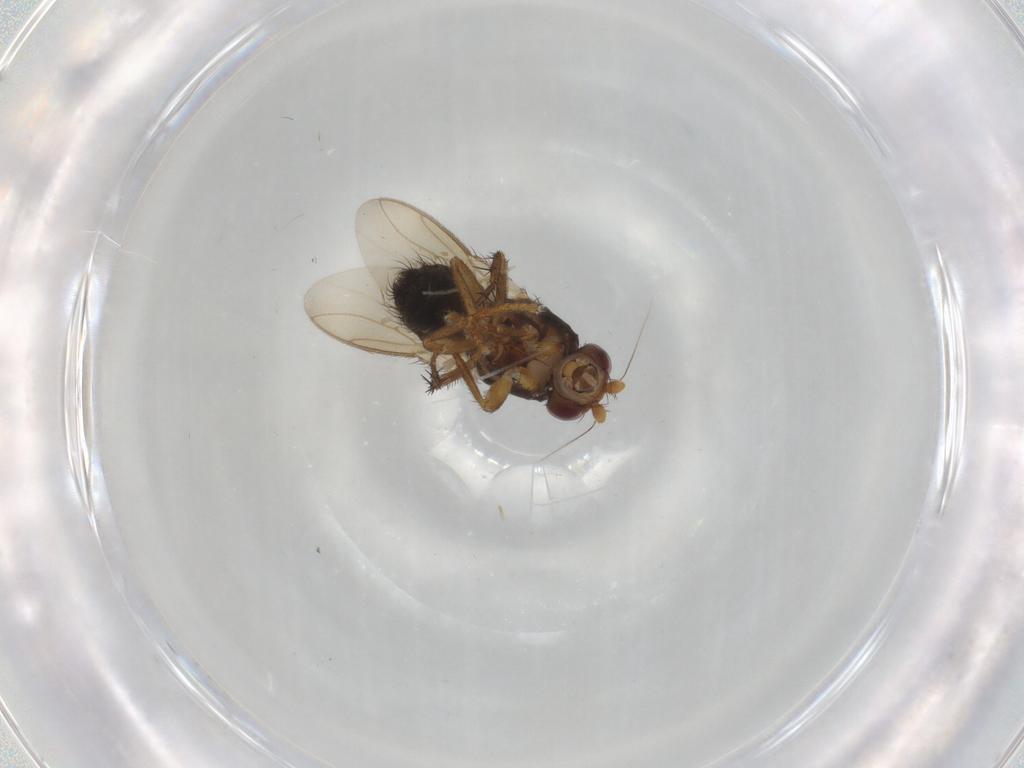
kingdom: Animalia
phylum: Arthropoda
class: Insecta
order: Diptera
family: Sphaeroceridae
